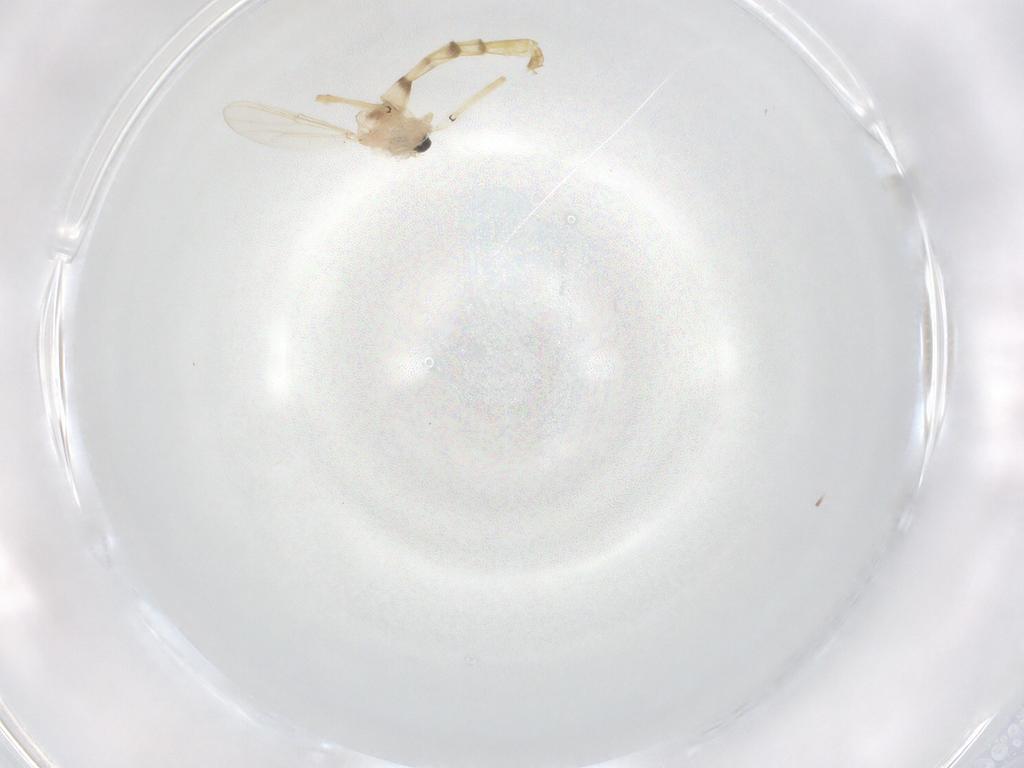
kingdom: Animalia
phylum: Arthropoda
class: Insecta
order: Diptera
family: Chironomidae
